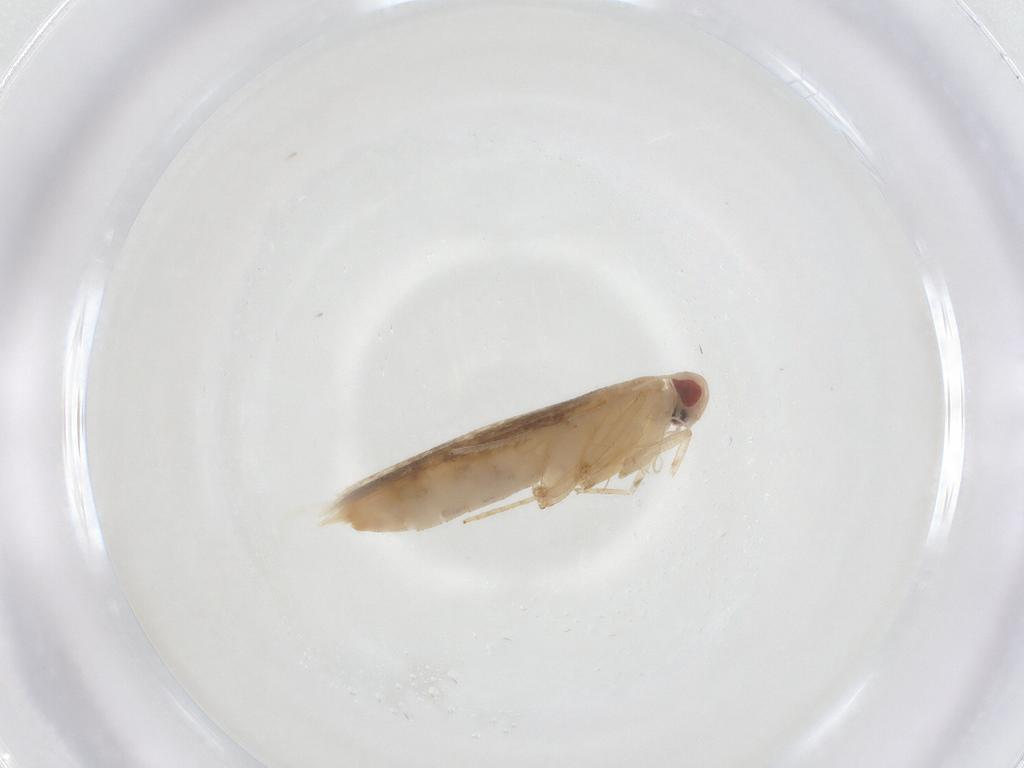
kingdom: Animalia
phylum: Arthropoda
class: Insecta
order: Lepidoptera
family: Cosmopterigidae
